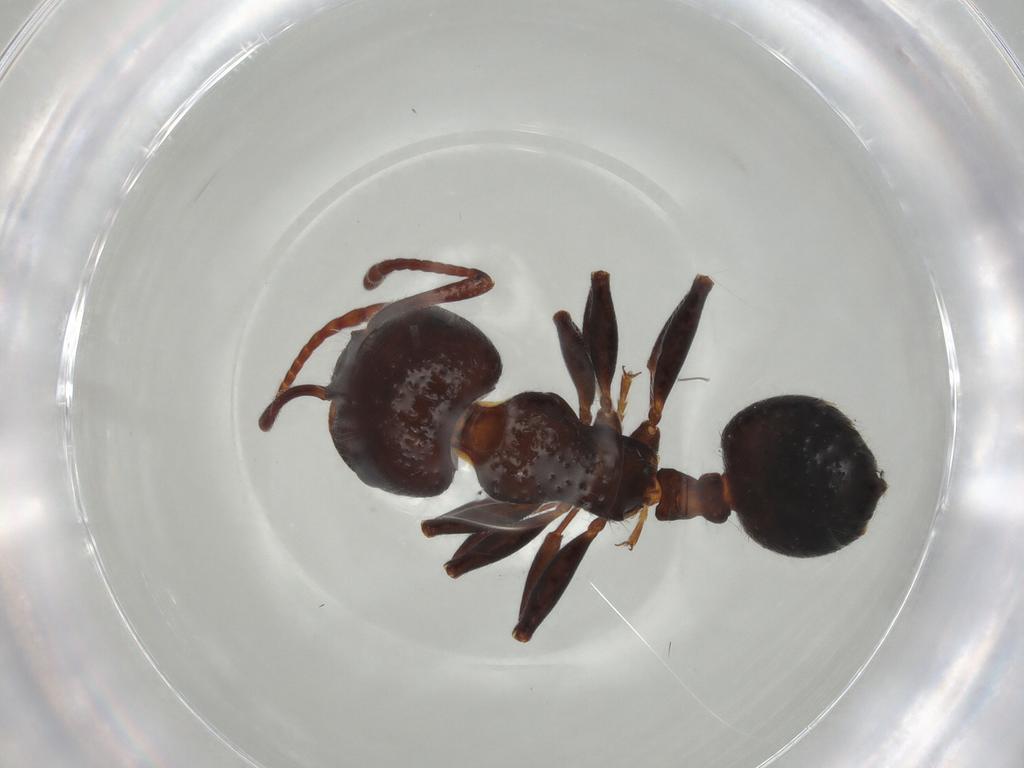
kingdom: Animalia
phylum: Arthropoda
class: Insecta
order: Hymenoptera
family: Formicidae
